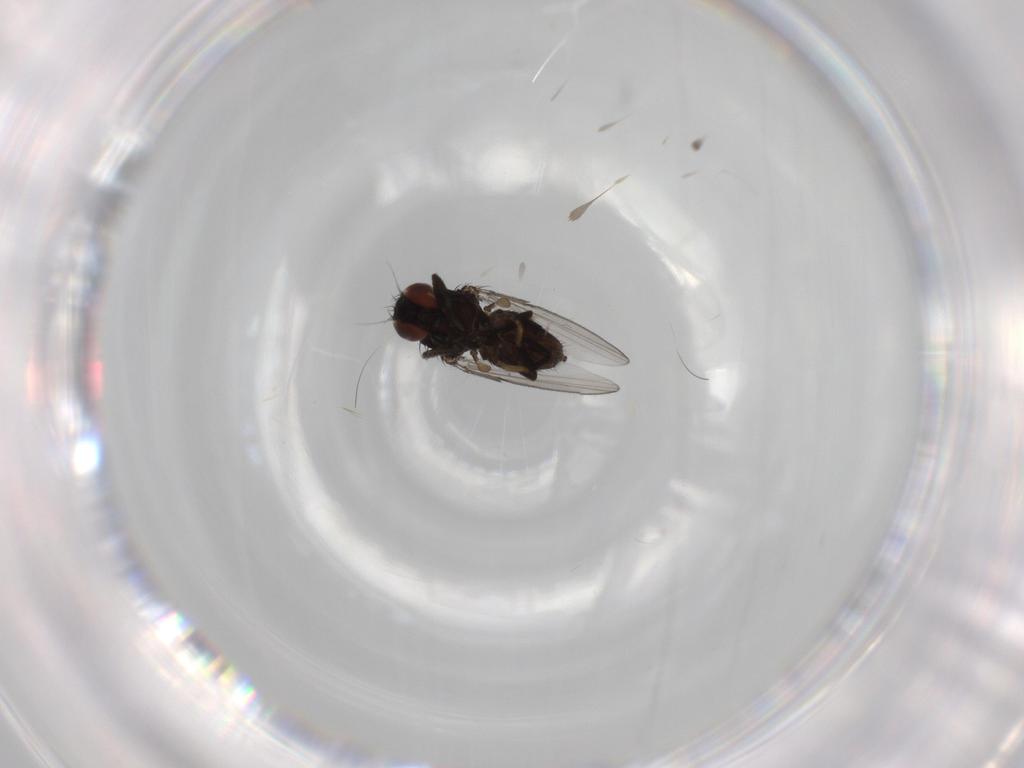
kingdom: Animalia
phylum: Arthropoda
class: Insecta
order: Diptera
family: Milichiidae
